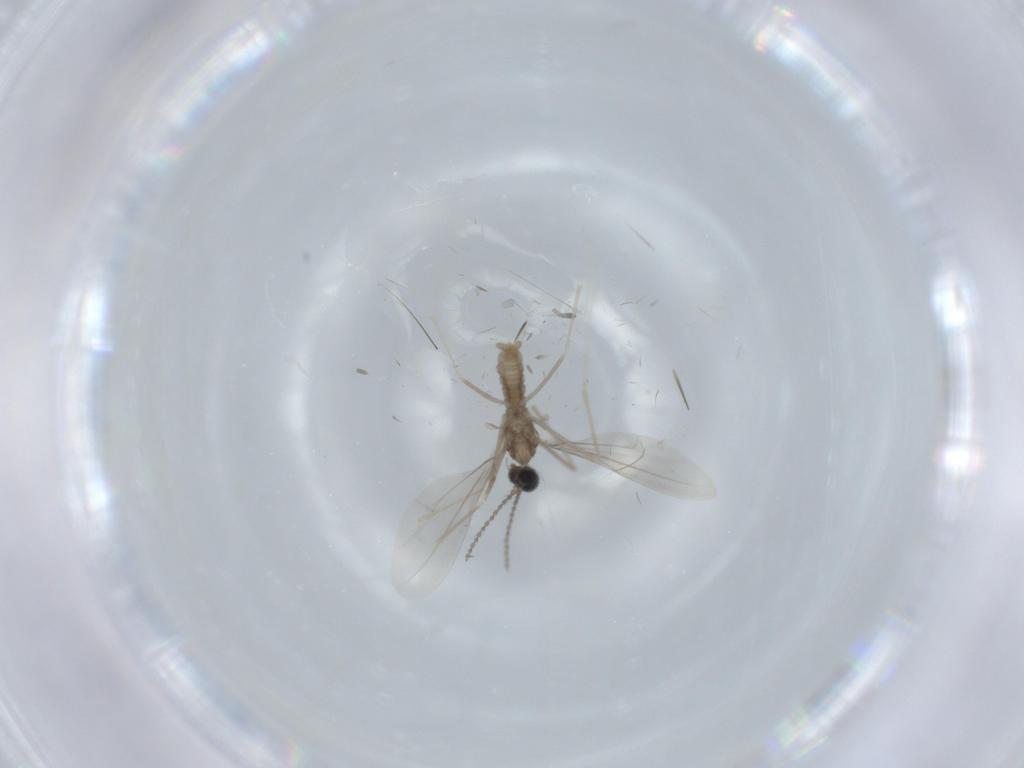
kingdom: Animalia
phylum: Arthropoda
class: Insecta
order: Diptera
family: Cecidomyiidae
